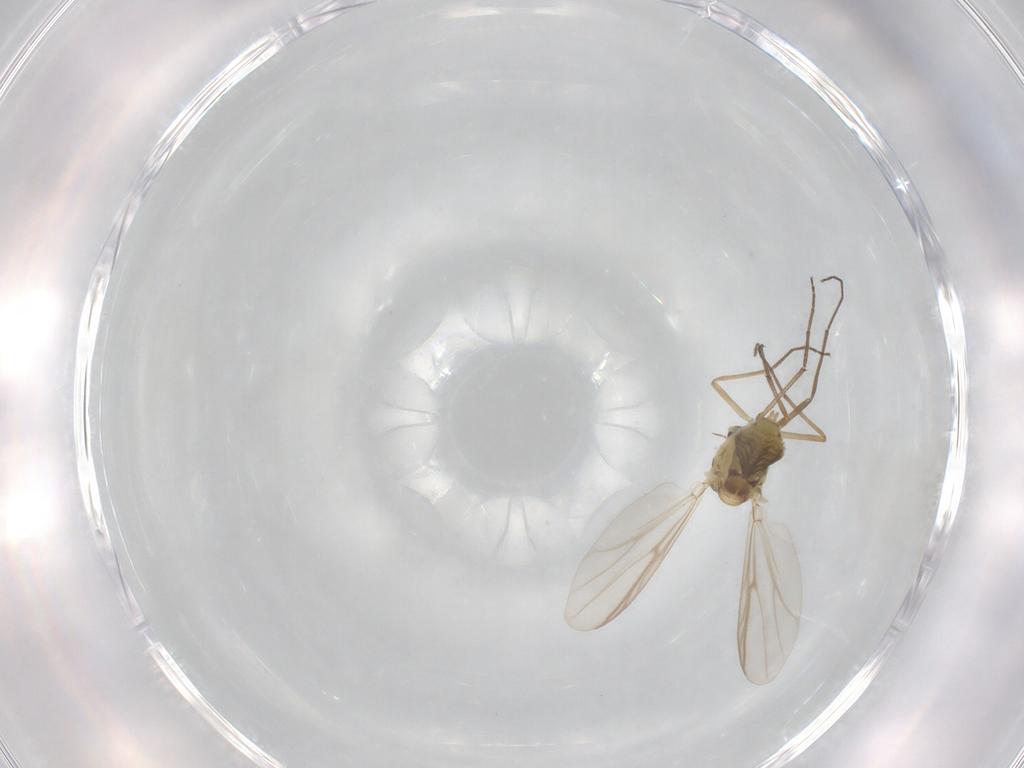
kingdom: Animalia
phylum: Arthropoda
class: Insecta
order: Diptera
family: Chironomidae
